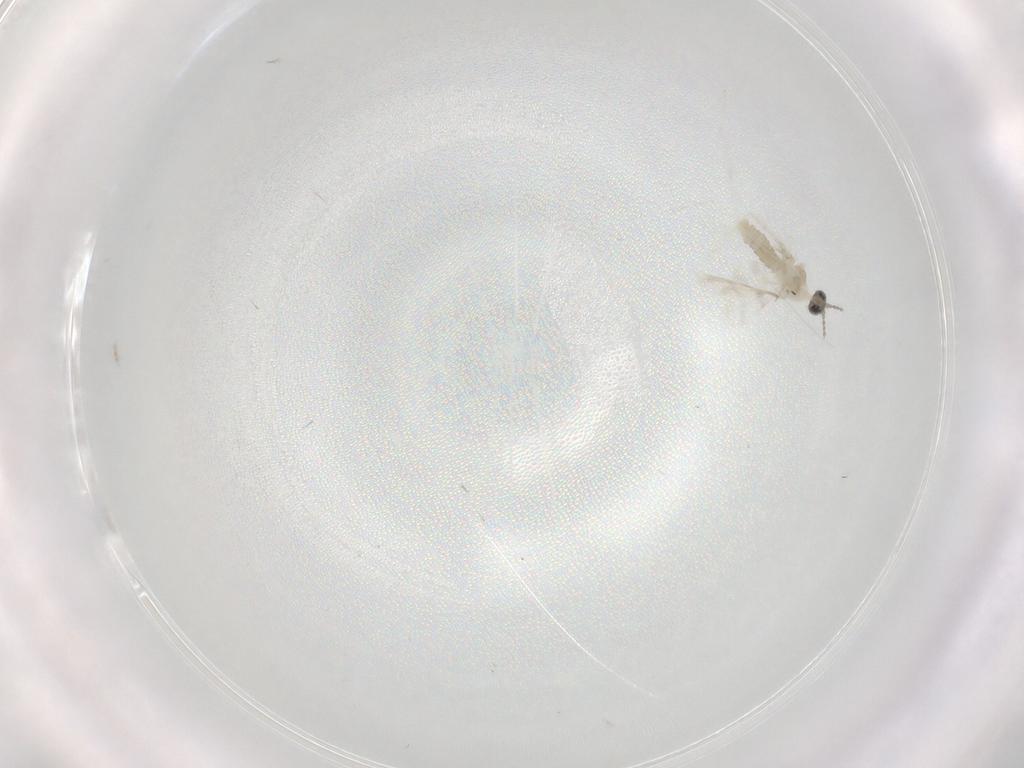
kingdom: Animalia
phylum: Arthropoda
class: Insecta
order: Diptera
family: Cecidomyiidae
